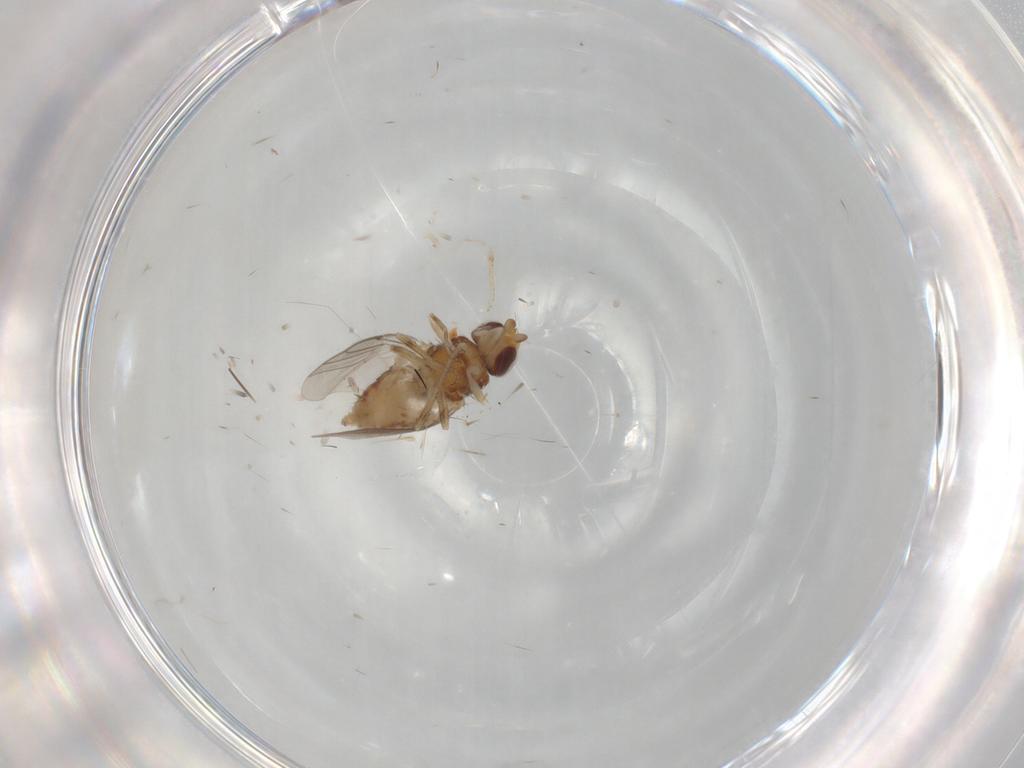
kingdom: Animalia
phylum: Arthropoda
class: Insecta
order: Diptera
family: Chloropidae
